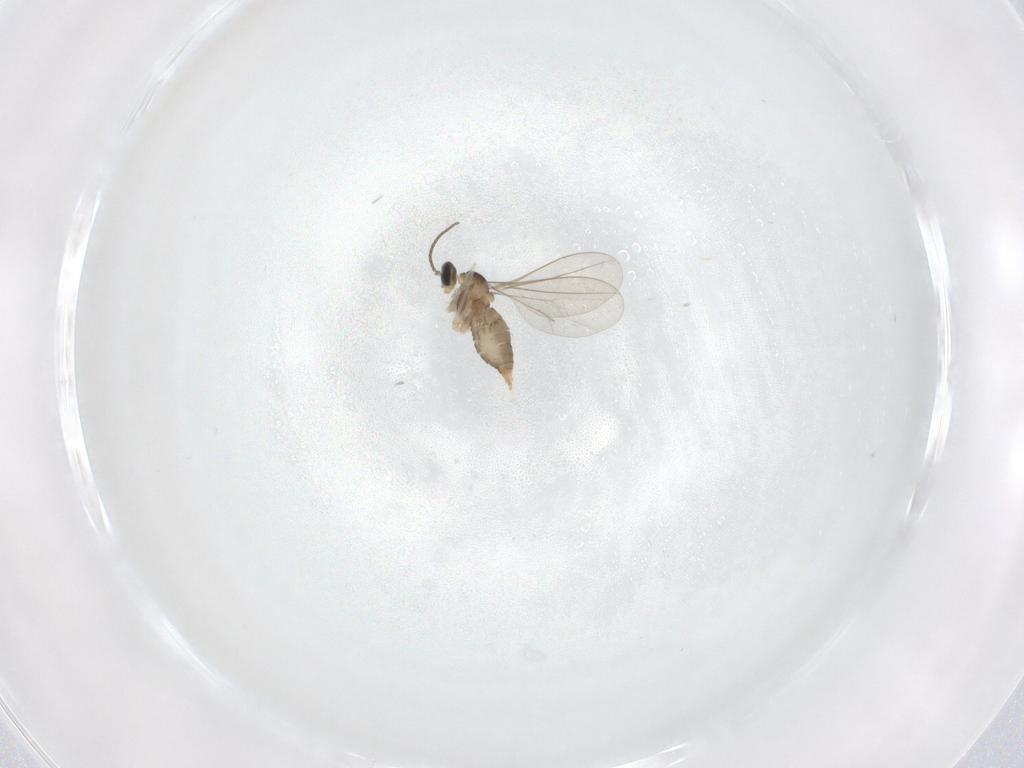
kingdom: Animalia
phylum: Arthropoda
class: Insecta
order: Diptera
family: Cecidomyiidae
